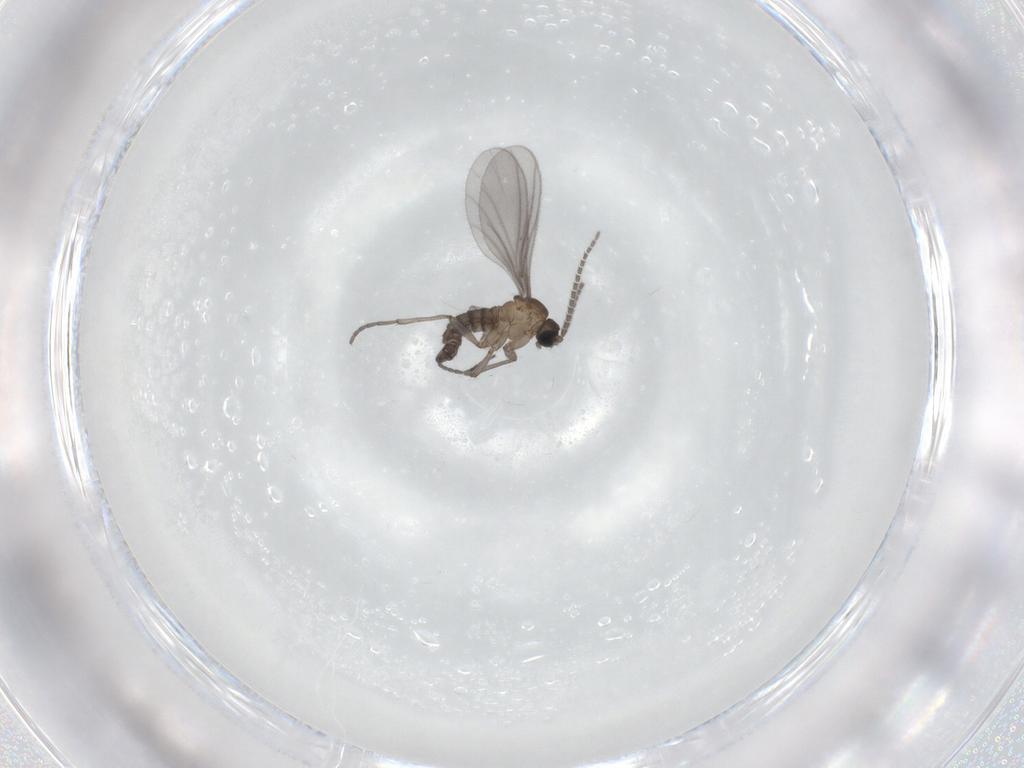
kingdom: Animalia
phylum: Arthropoda
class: Insecta
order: Diptera
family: Sciaridae
